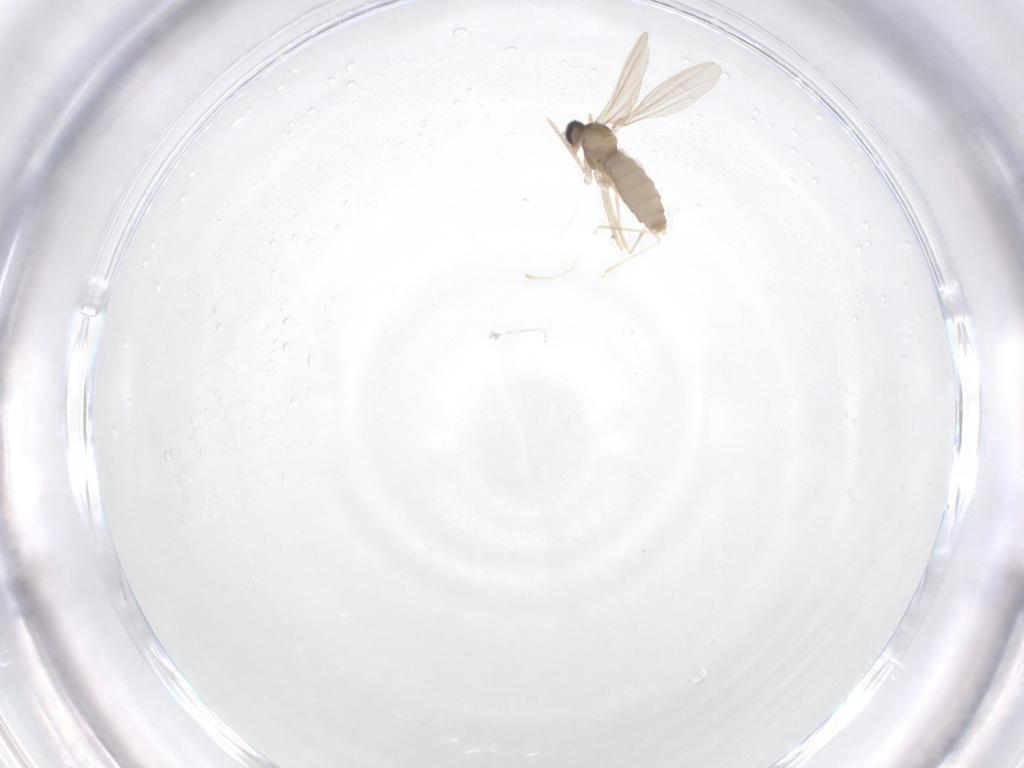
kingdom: Animalia
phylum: Arthropoda
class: Insecta
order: Diptera
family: Cecidomyiidae
